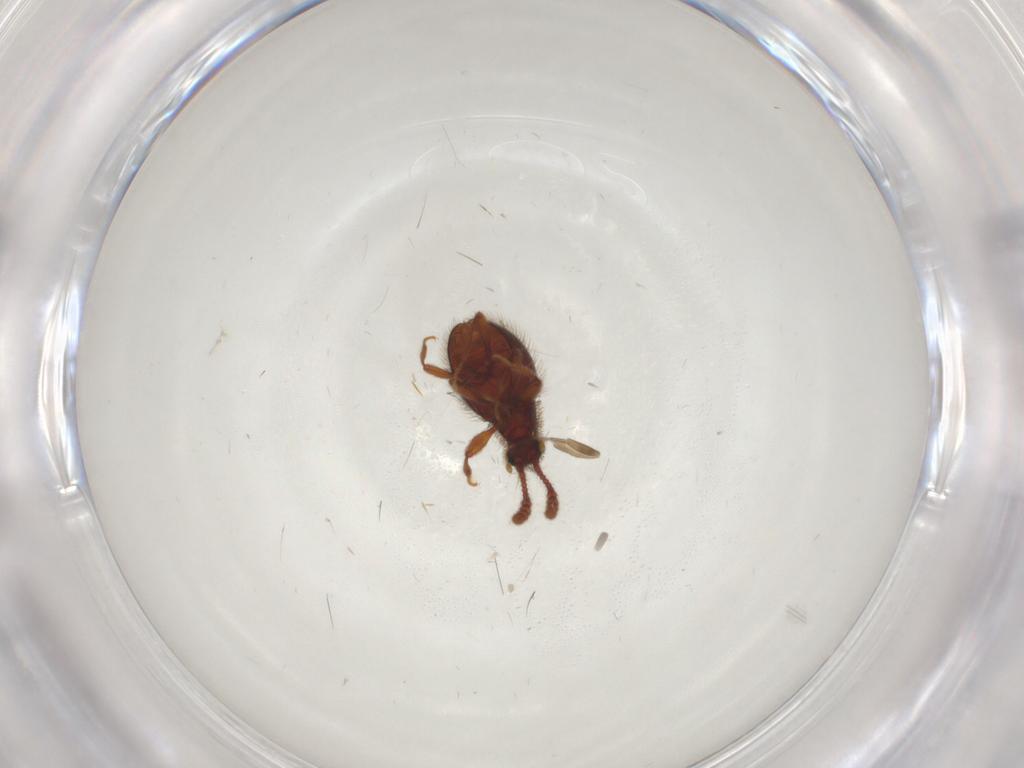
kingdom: Animalia
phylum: Arthropoda
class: Insecta
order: Coleoptera
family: Staphylinidae
